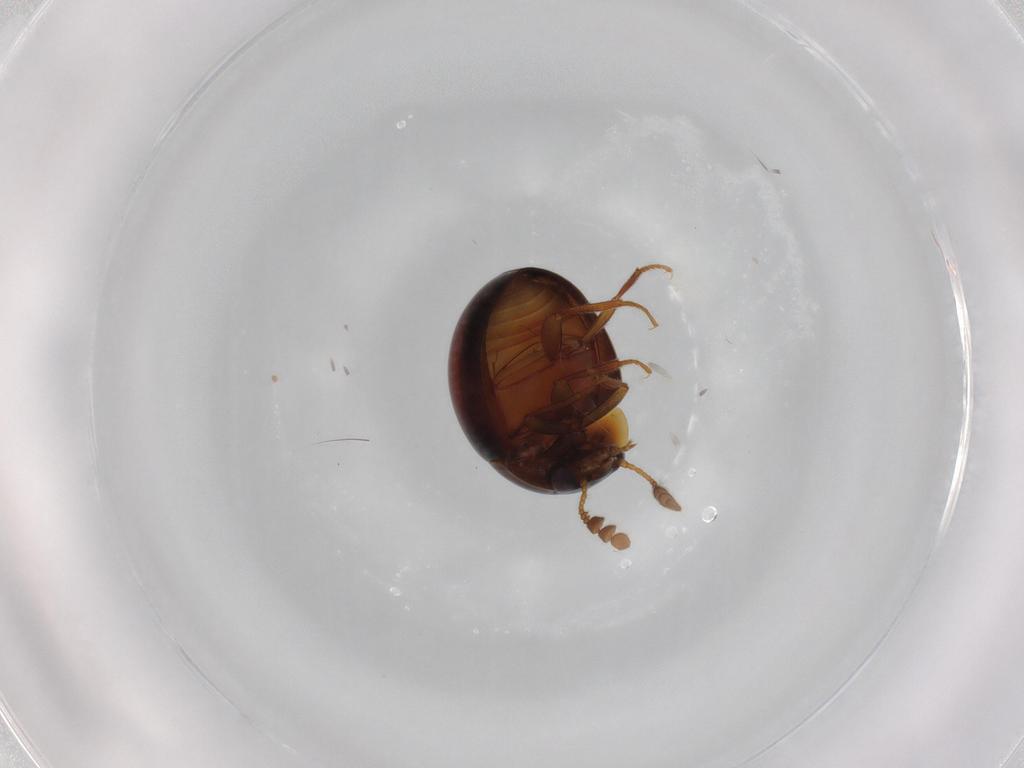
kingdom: Animalia
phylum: Arthropoda
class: Insecta
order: Coleoptera
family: Leiodidae
